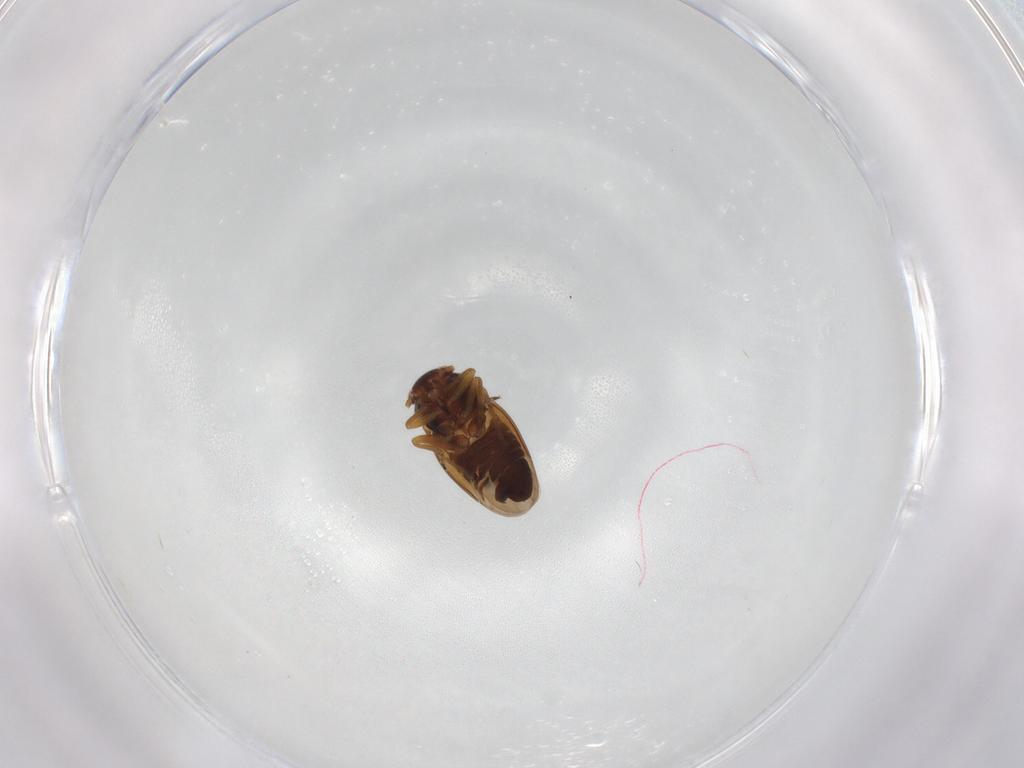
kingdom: Animalia
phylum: Arthropoda
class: Insecta
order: Hemiptera
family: Schizopteridae
